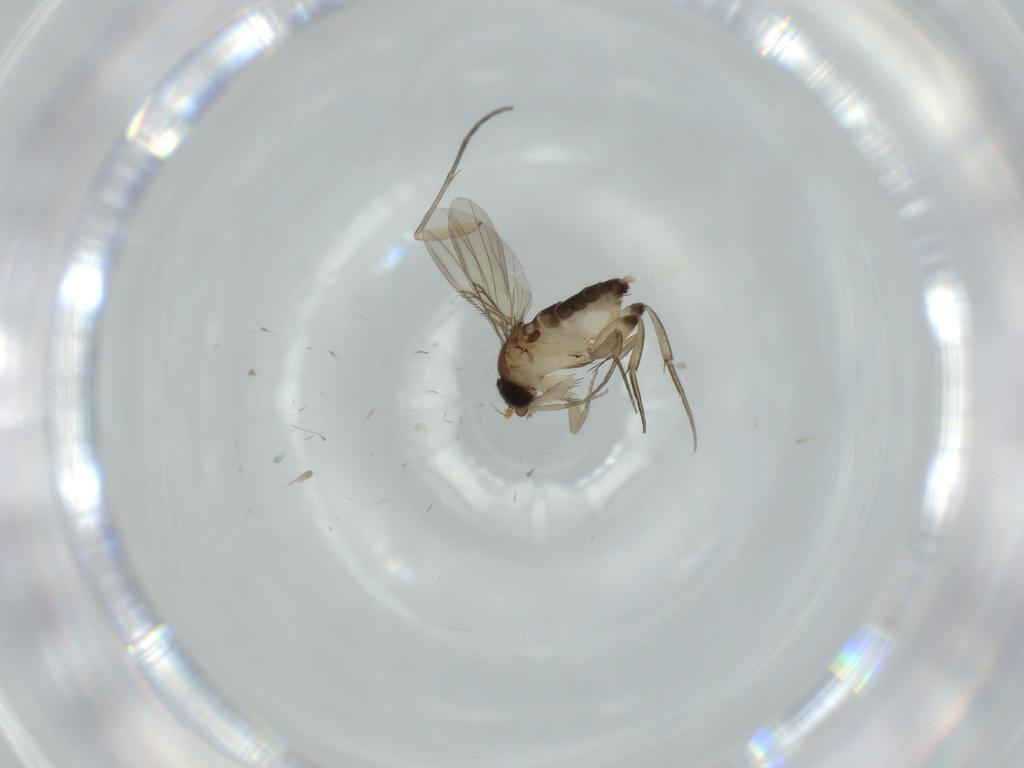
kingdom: Animalia
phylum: Arthropoda
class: Insecta
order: Diptera
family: Phoridae
